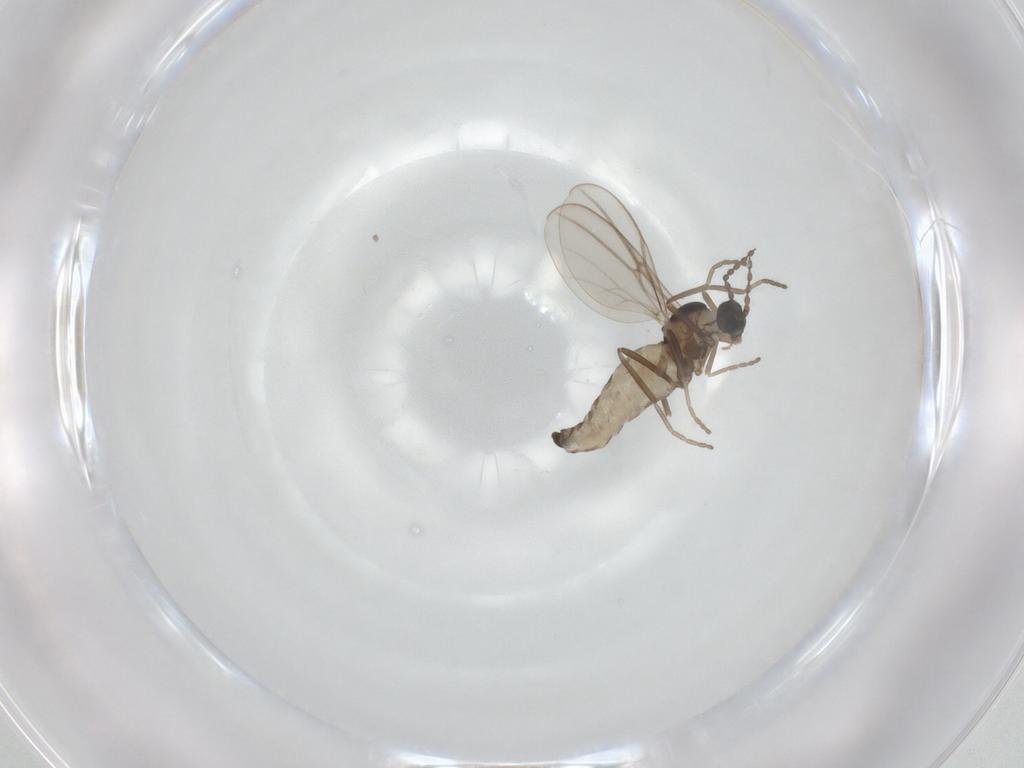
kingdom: Animalia
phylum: Arthropoda
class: Insecta
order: Diptera
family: Cecidomyiidae
